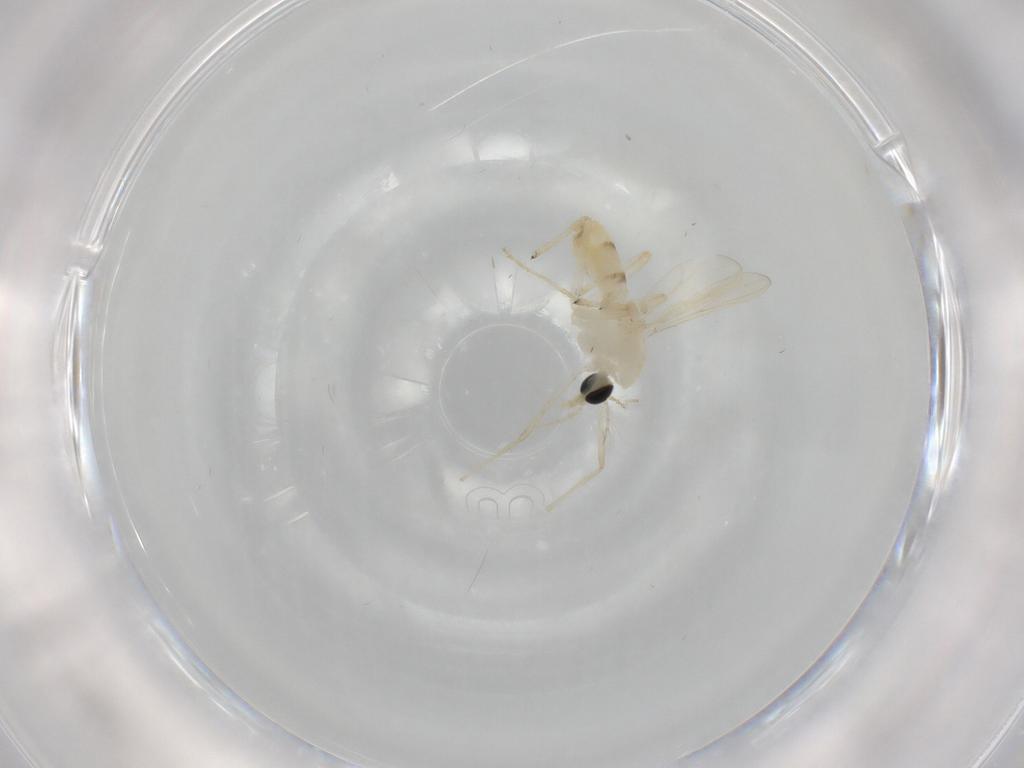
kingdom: Animalia
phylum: Arthropoda
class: Insecta
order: Diptera
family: Chironomidae
